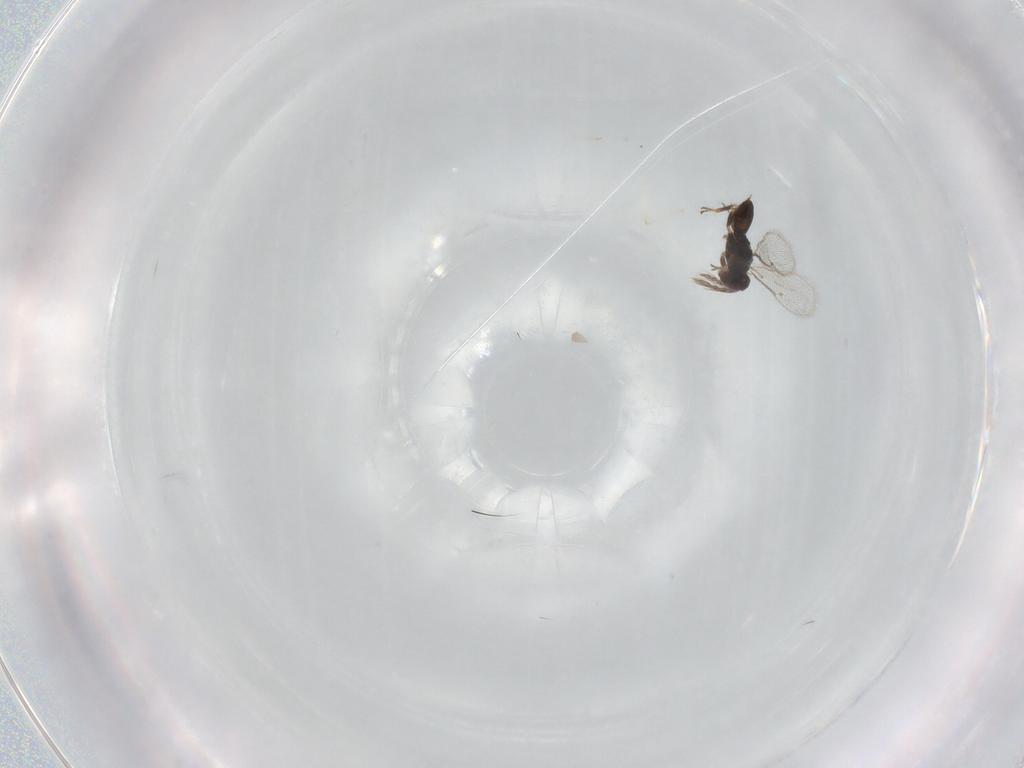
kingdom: Animalia
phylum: Arthropoda
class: Insecta
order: Hymenoptera
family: Eulophidae
